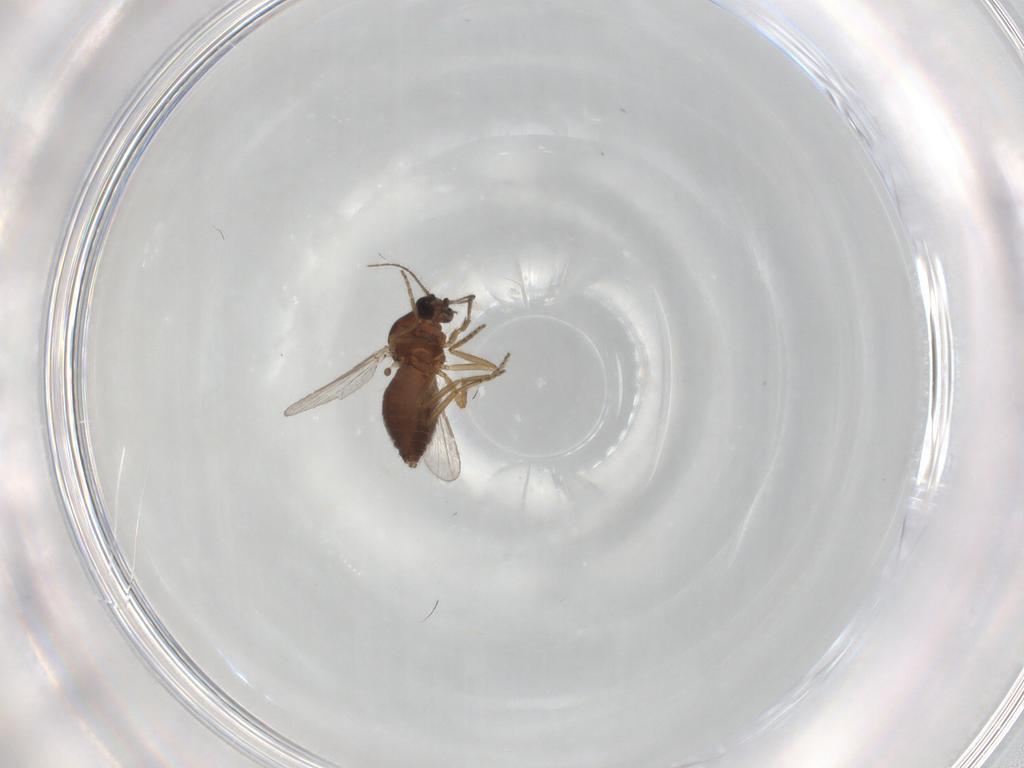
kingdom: Animalia
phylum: Arthropoda
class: Insecta
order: Diptera
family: Ceratopogonidae
